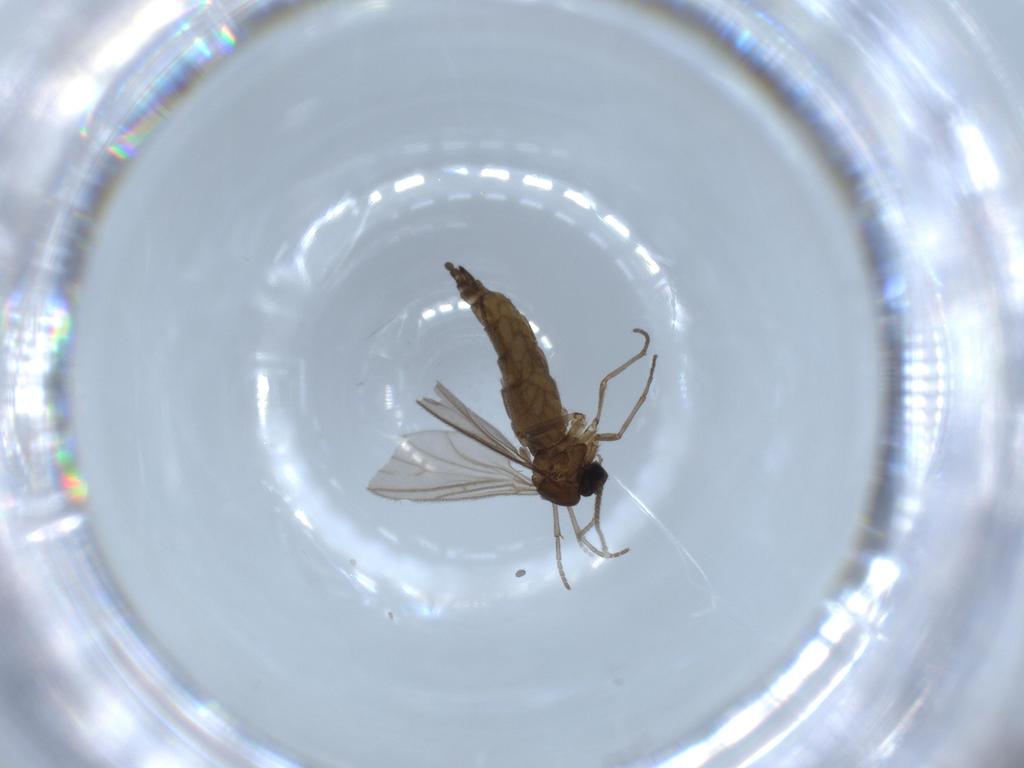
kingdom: Animalia
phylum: Arthropoda
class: Insecta
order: Diptera
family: Sciaridae
